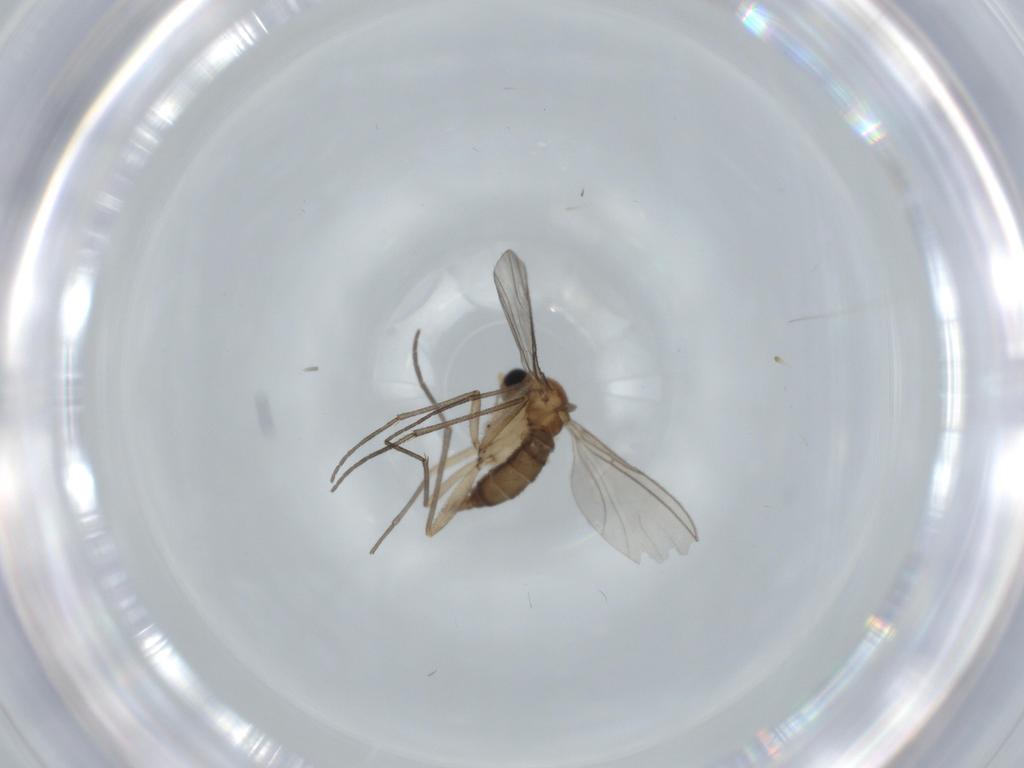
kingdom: Animalia
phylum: Arthropoda
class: Insecta
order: Diptera
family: Sciaridae
